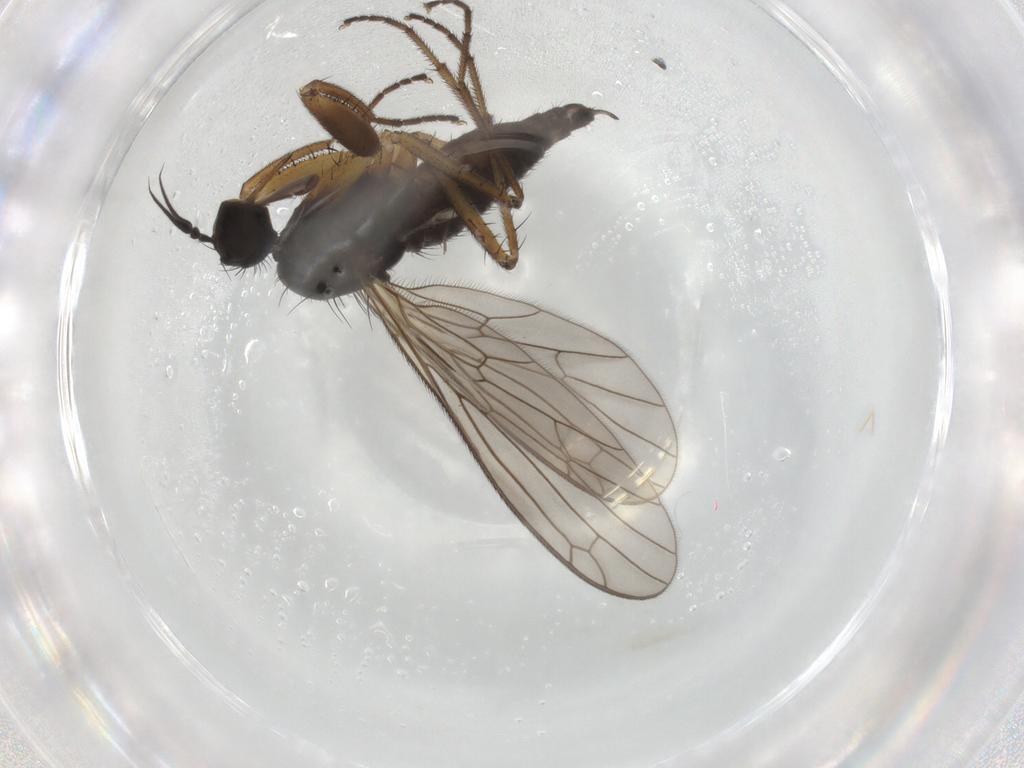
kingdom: Animalia
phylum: Arthropoda
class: Insecta
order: Diptera
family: Empididae
